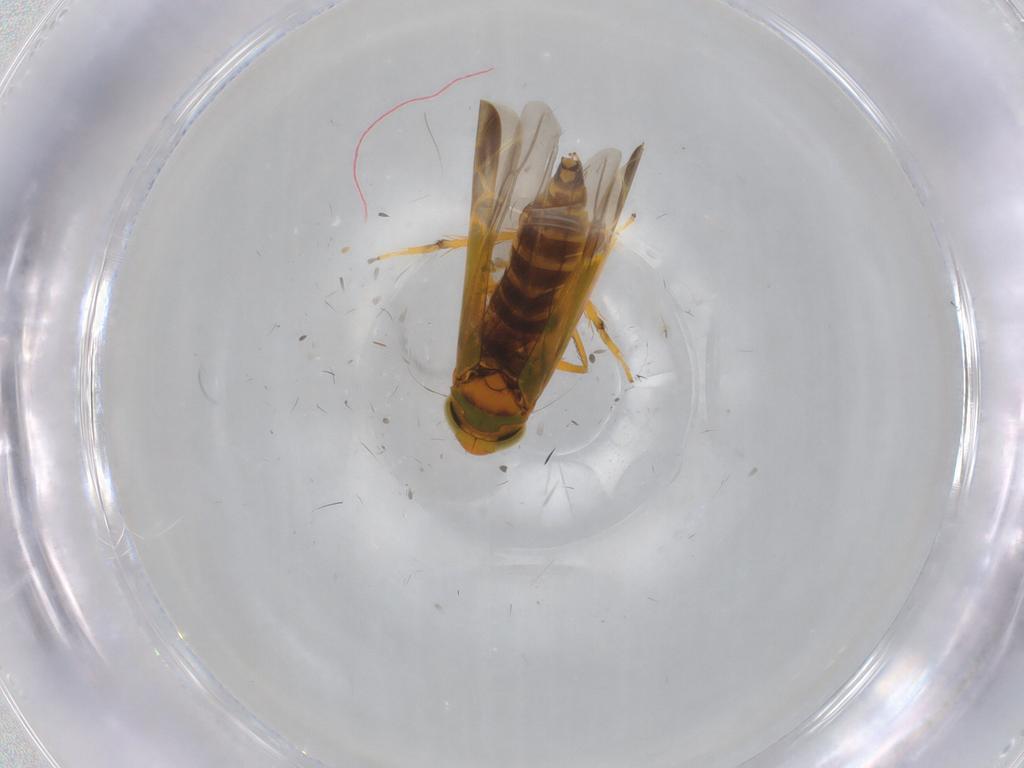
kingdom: Animalia
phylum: Arthropoda
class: Insecta
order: Hemiptera
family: Cicadellidae
